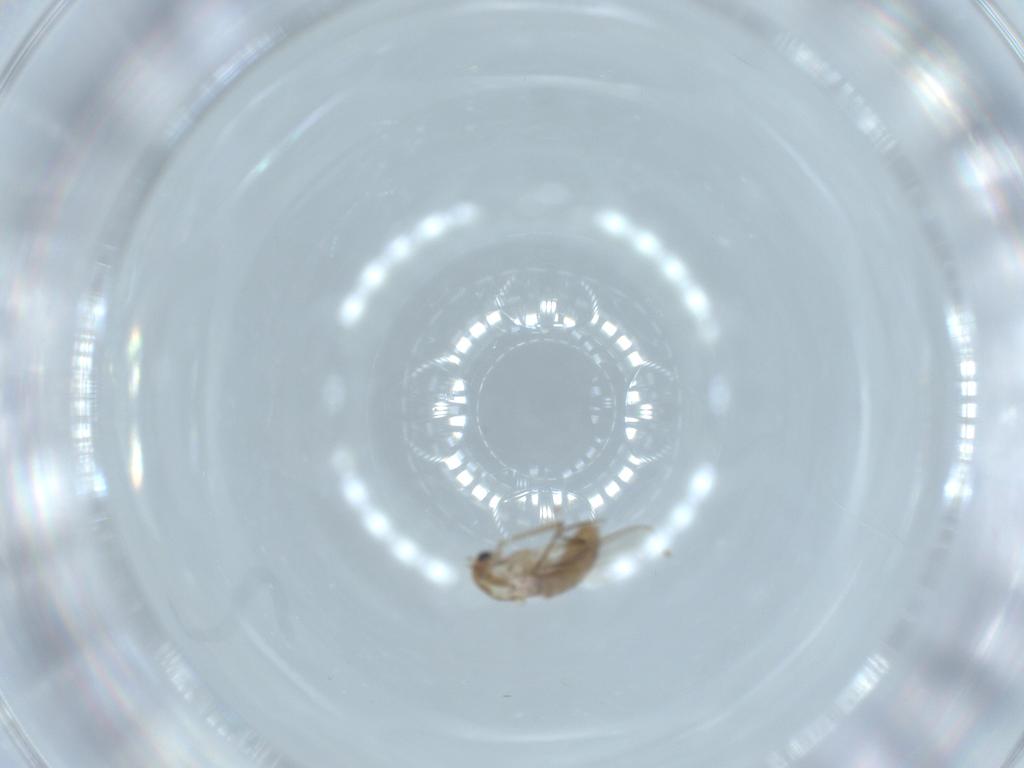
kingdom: Animalia
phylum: Arthropoda
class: Insecta
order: Diptera
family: Chironomidae
